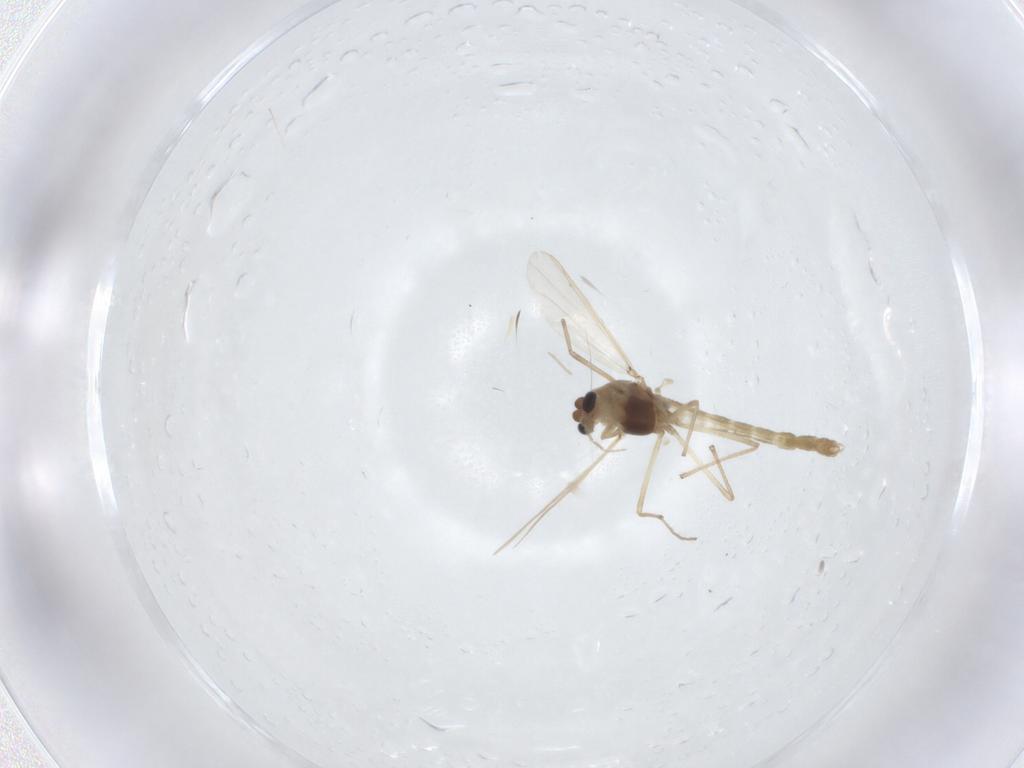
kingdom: Animalia
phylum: Arthropoda
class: Insecta
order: Diptera
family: Chironomidae
